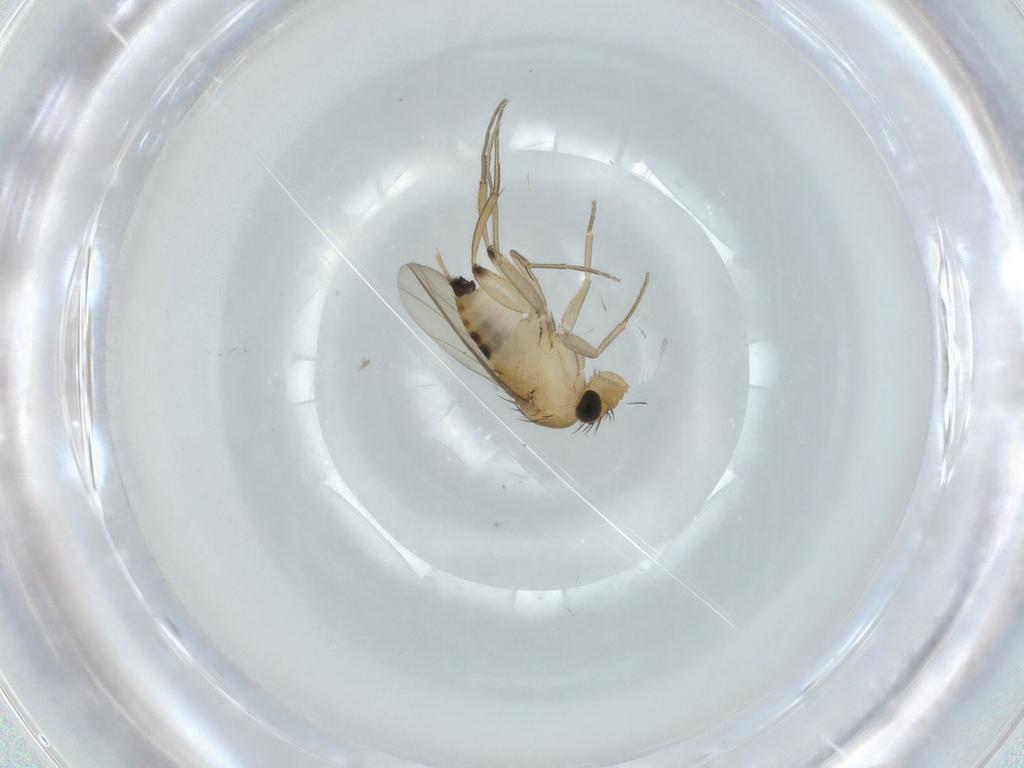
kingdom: Animalia
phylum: Arthropoda
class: Insecta
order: Diptera
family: Phoridae
